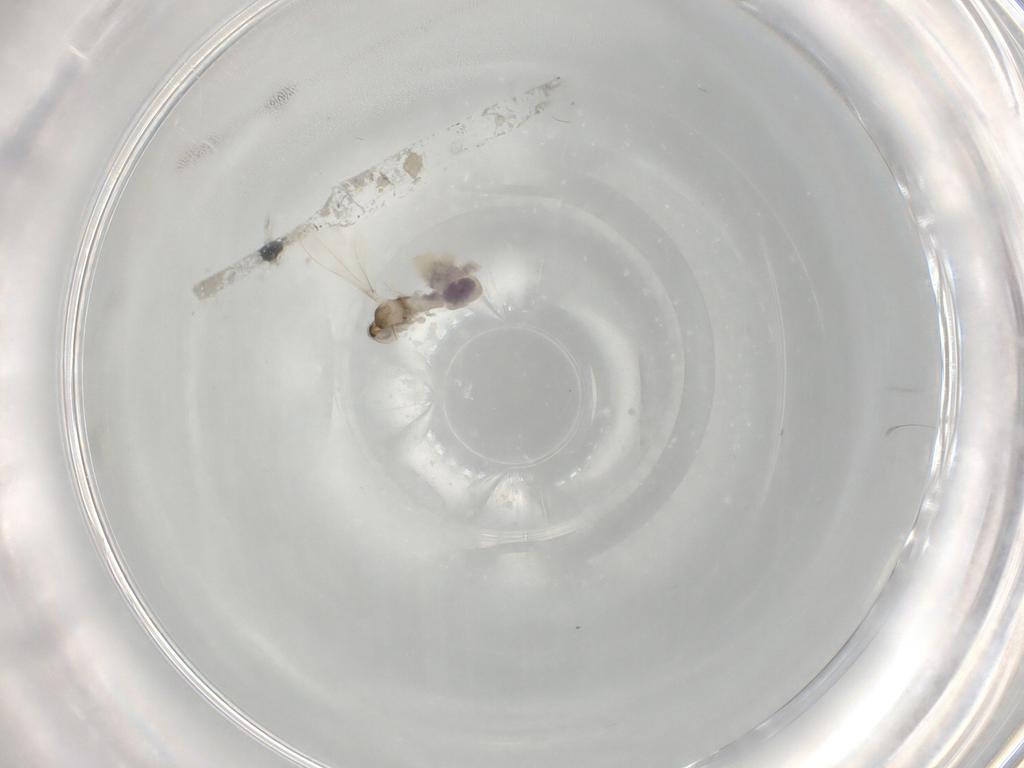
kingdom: Animalia
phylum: Arthropoda
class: Insecta
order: Diptera
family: Cecidomyiidae
